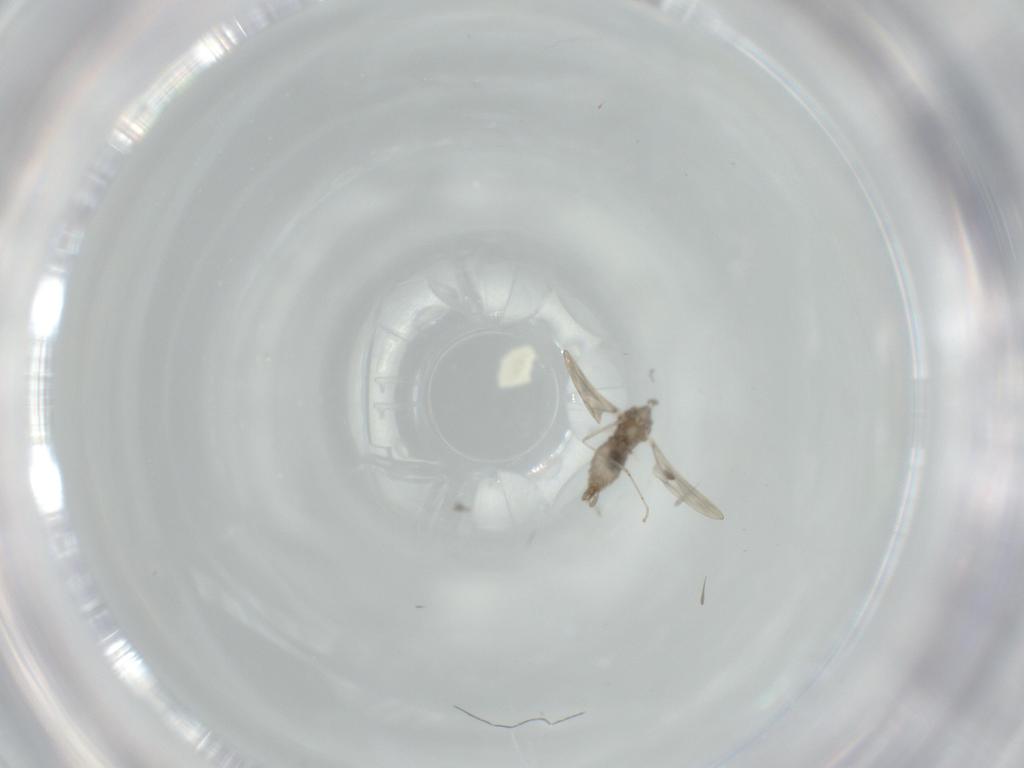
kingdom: Animalia
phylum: Arthropoda
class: Insecta
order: Diptera
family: Cecidomyiidae
